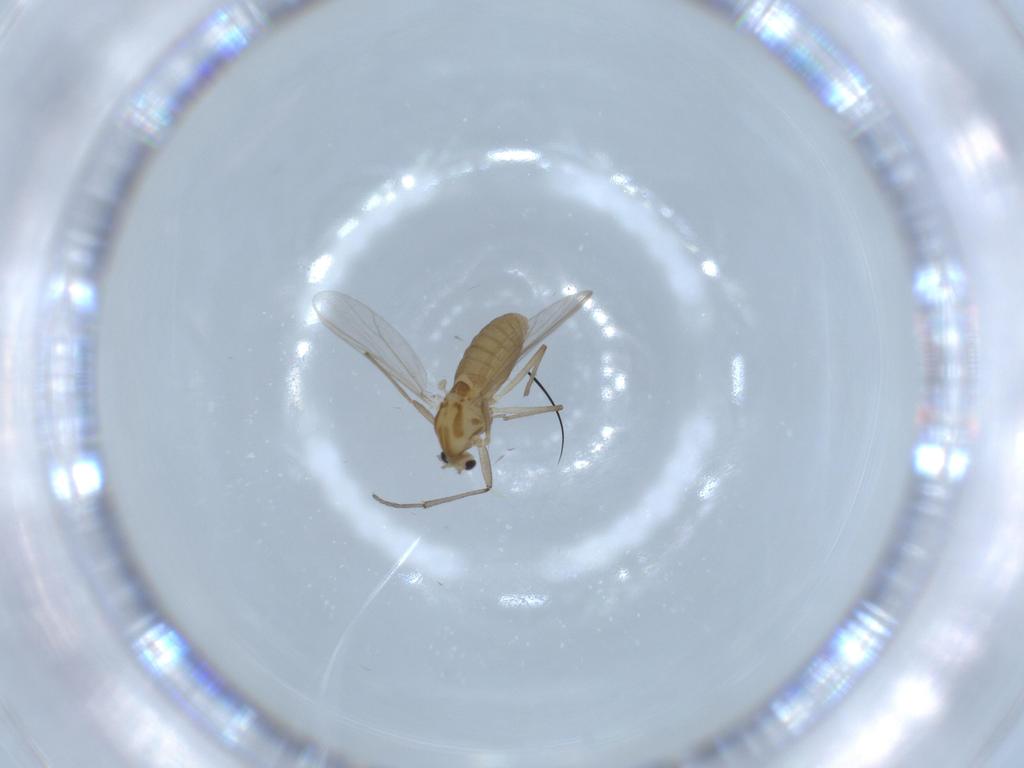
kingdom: Animalia
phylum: Arthropoda
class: Insecta
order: Diptera
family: Chironomidae
